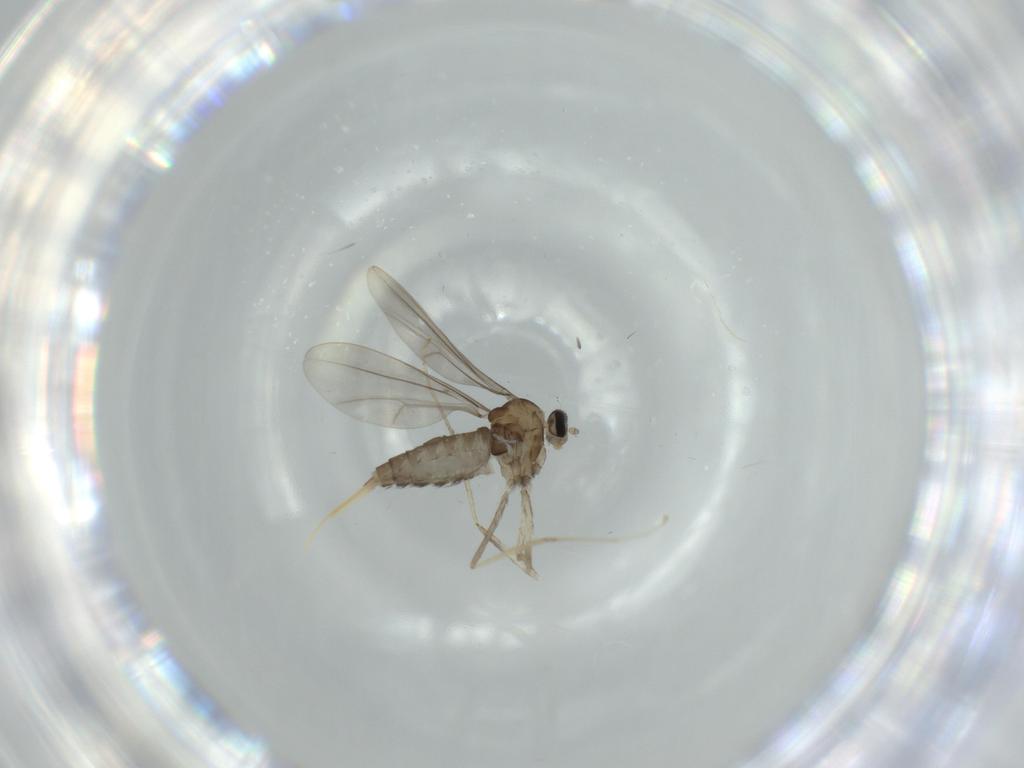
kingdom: Animalia
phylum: Arthropoda
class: Insecta
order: Diptera
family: Cecidomyiidae
